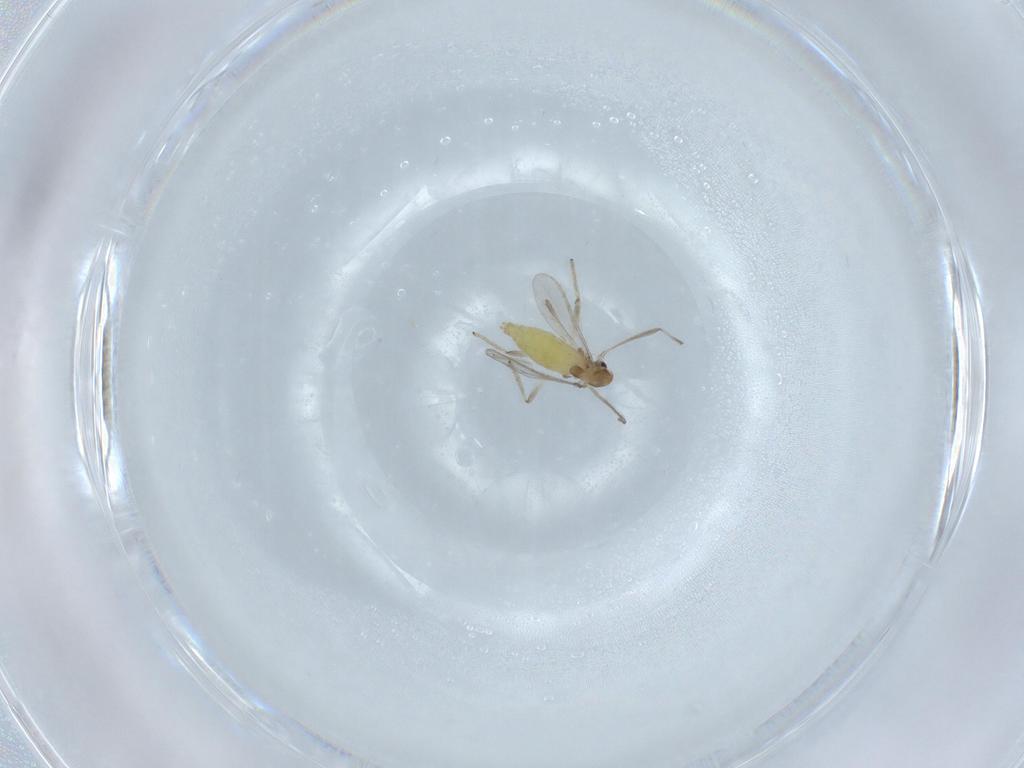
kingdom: Animalia
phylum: Arthropoda
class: Insecta
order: Diptera
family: Chironomidae
